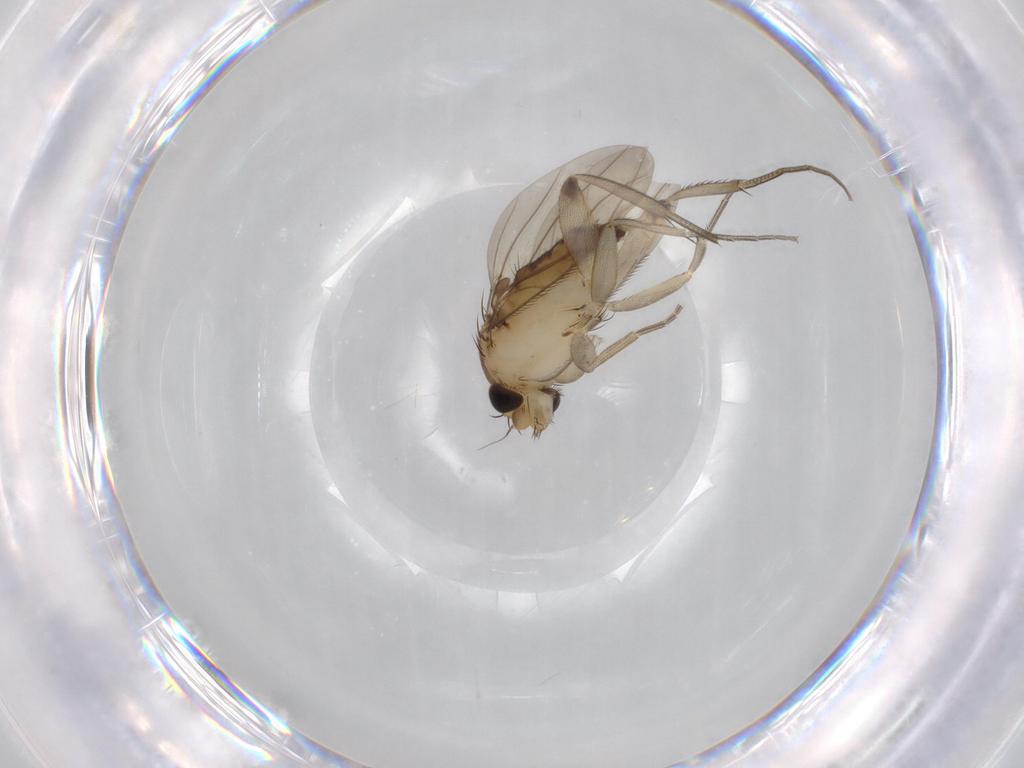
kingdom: Animalia
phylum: Arthropoda
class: Insecta
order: Diptera
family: Phoridae
